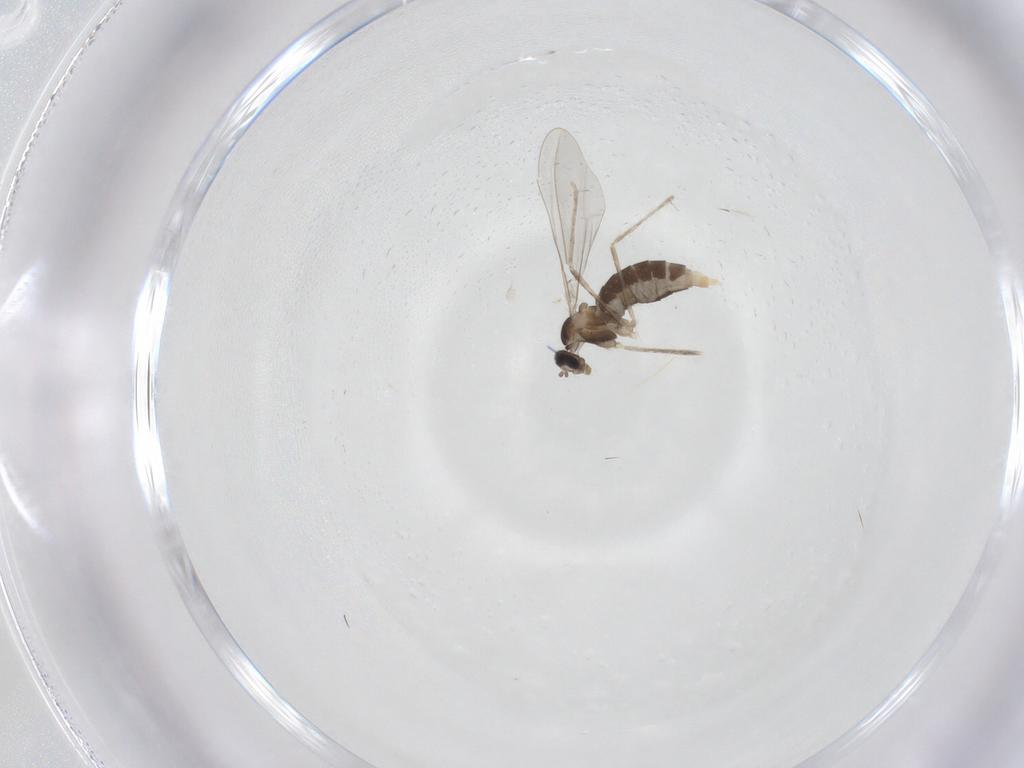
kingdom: Animalia
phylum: Arthropoda
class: Insecta
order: Diptera
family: Cecidomyiidae
